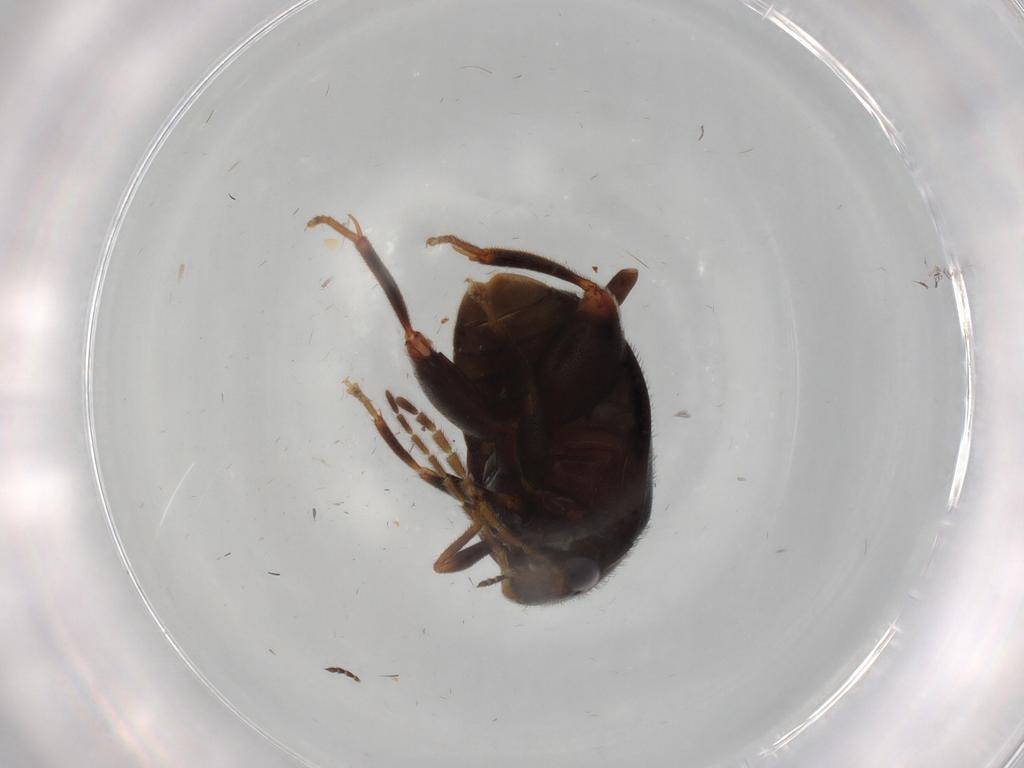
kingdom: Animalia
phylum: Arthropoda
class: Insecta
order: Coleoptera
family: Scirtidae
